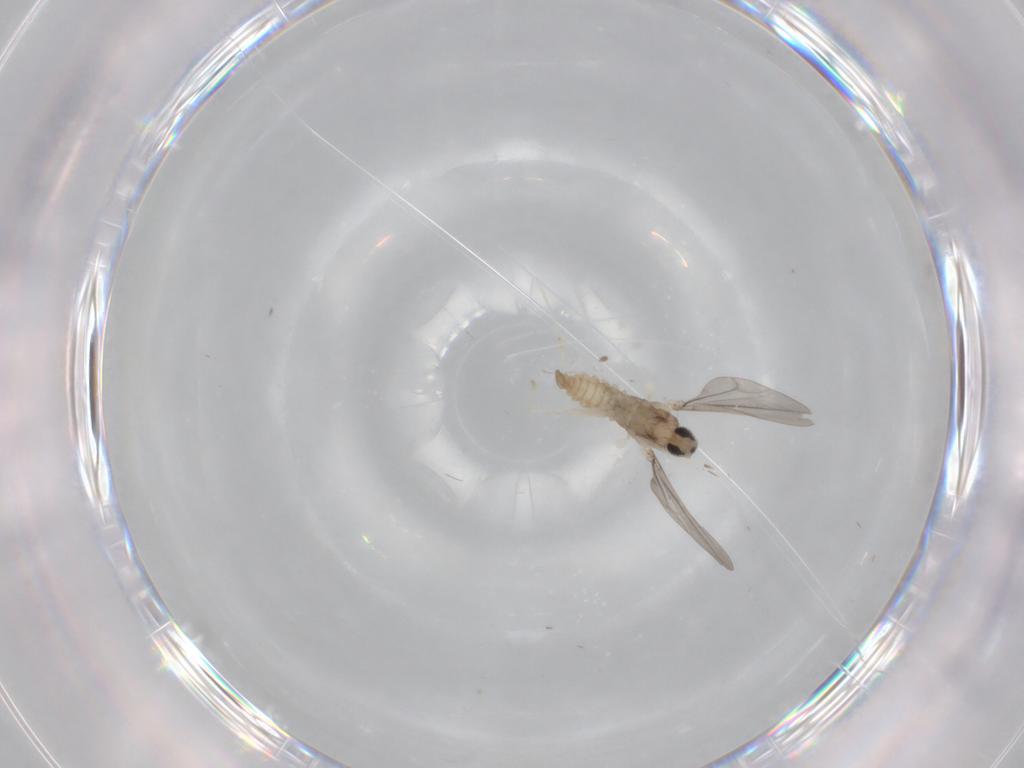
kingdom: Animalia
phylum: Arthropoda
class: Insecta
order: Diptera
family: Cecidomyiidae
